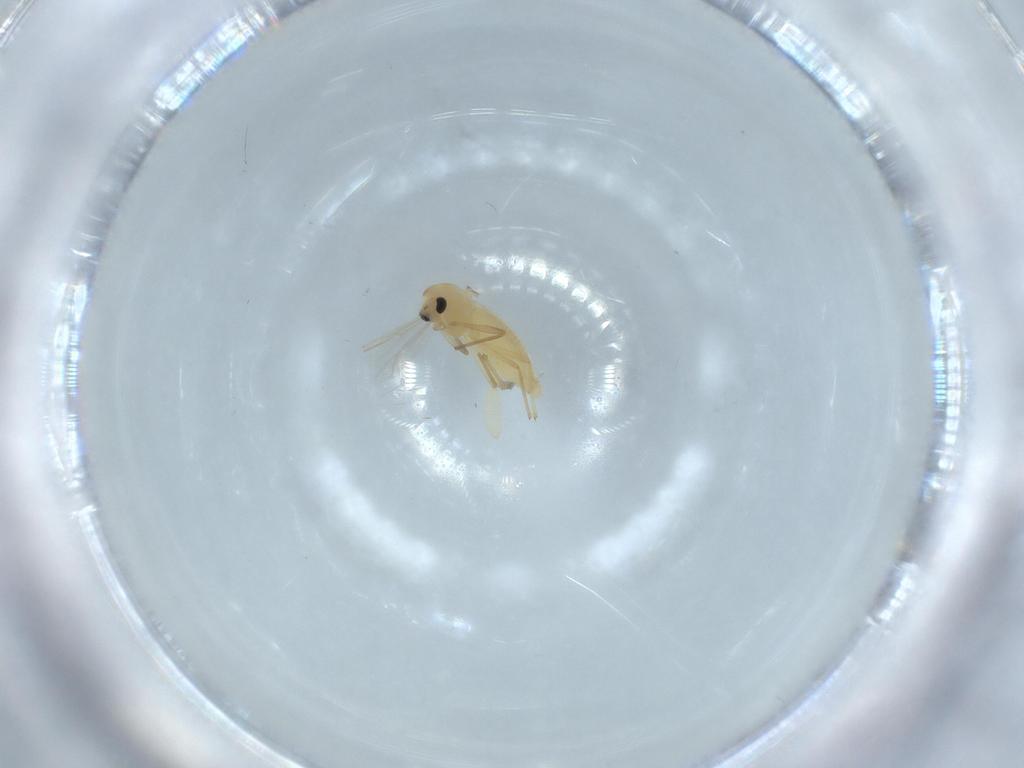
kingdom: Animalia
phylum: Arthropoda
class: Insecta
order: Diptera
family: Chironomidae
